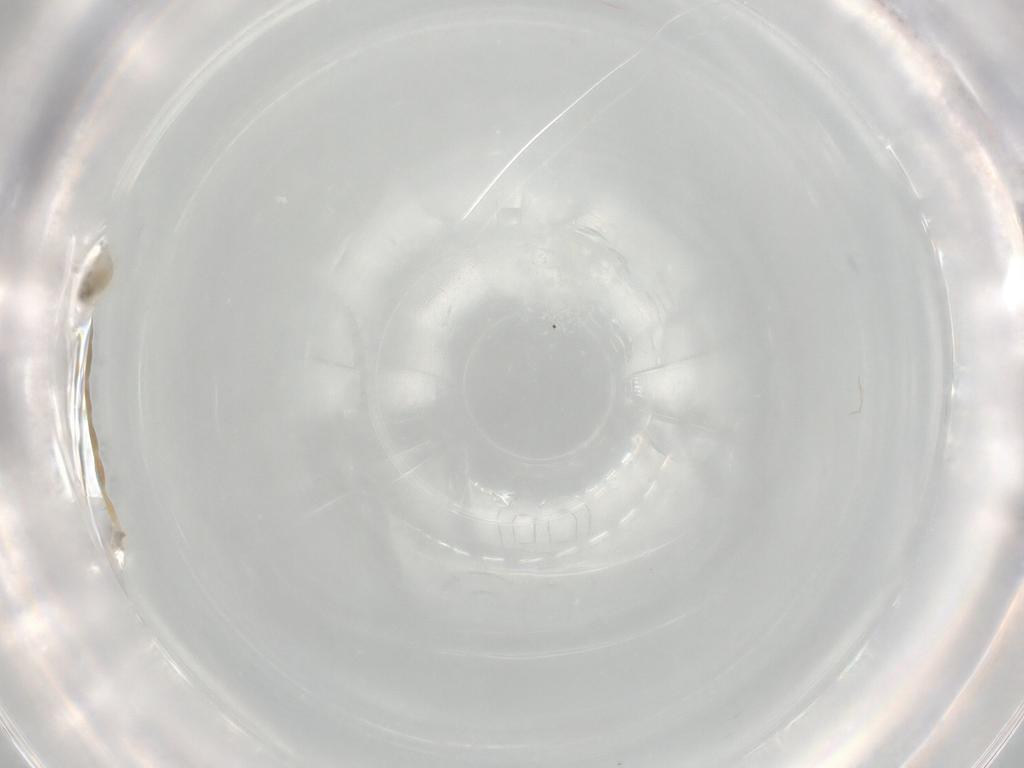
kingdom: Animalia
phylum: Arthropoda
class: Insecta
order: Diptera
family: Chironomidae
